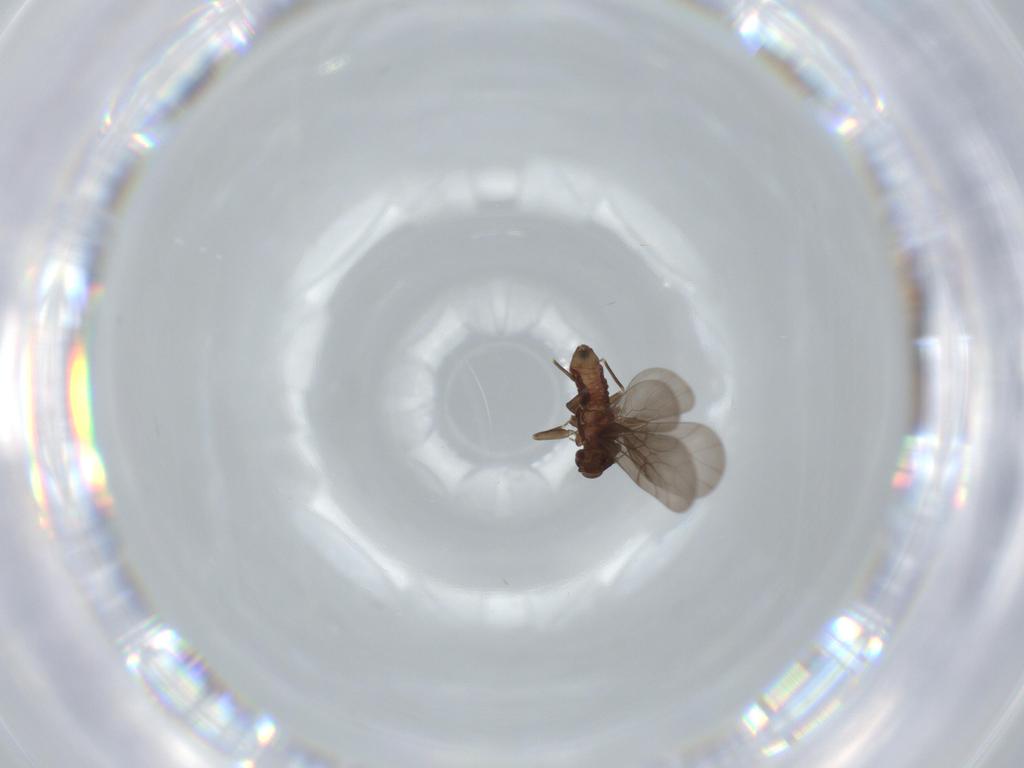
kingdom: Animalia
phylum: Arthropoda
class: Insecta
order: Psocodea
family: Lepidopsocidae
